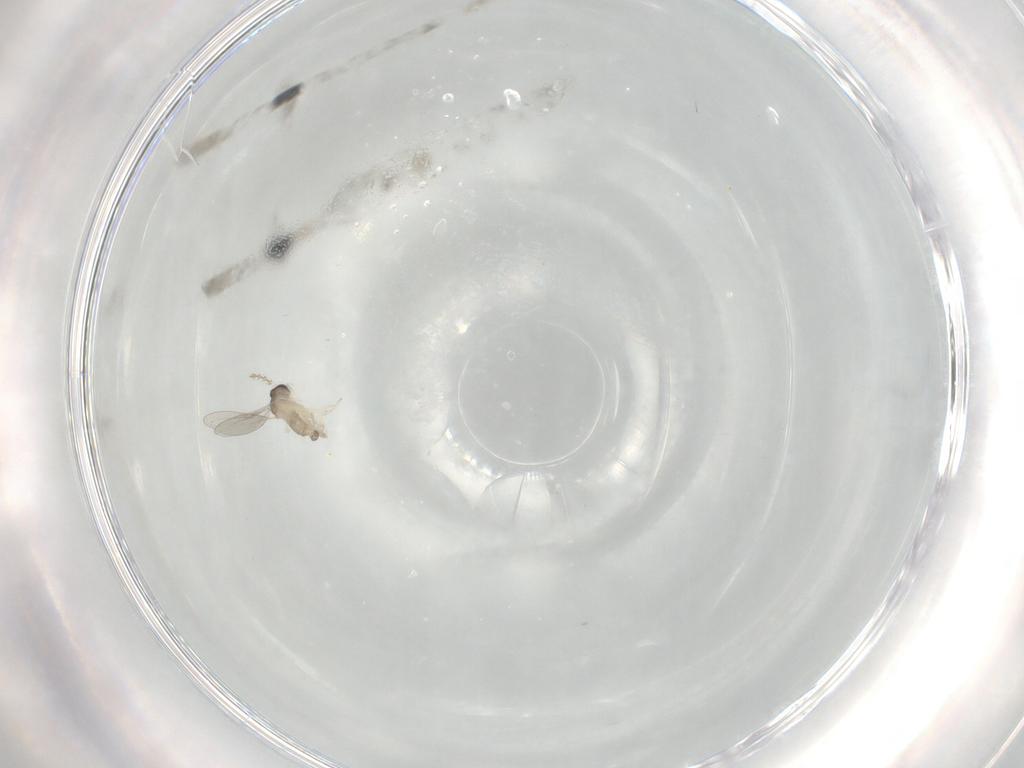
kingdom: Animalia
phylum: Arthropoda
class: Insecta
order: Diptera
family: Cecidomyiidae
